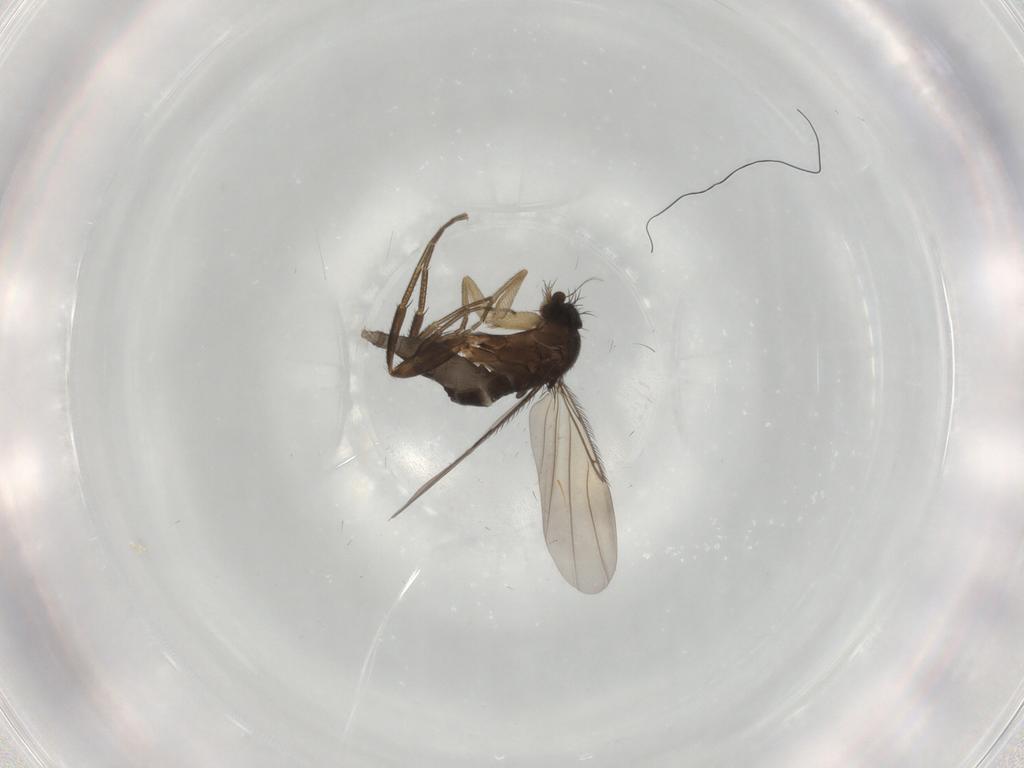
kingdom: Animalia
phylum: Arthropoda
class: Insecta
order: Diptera
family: Phoridae
